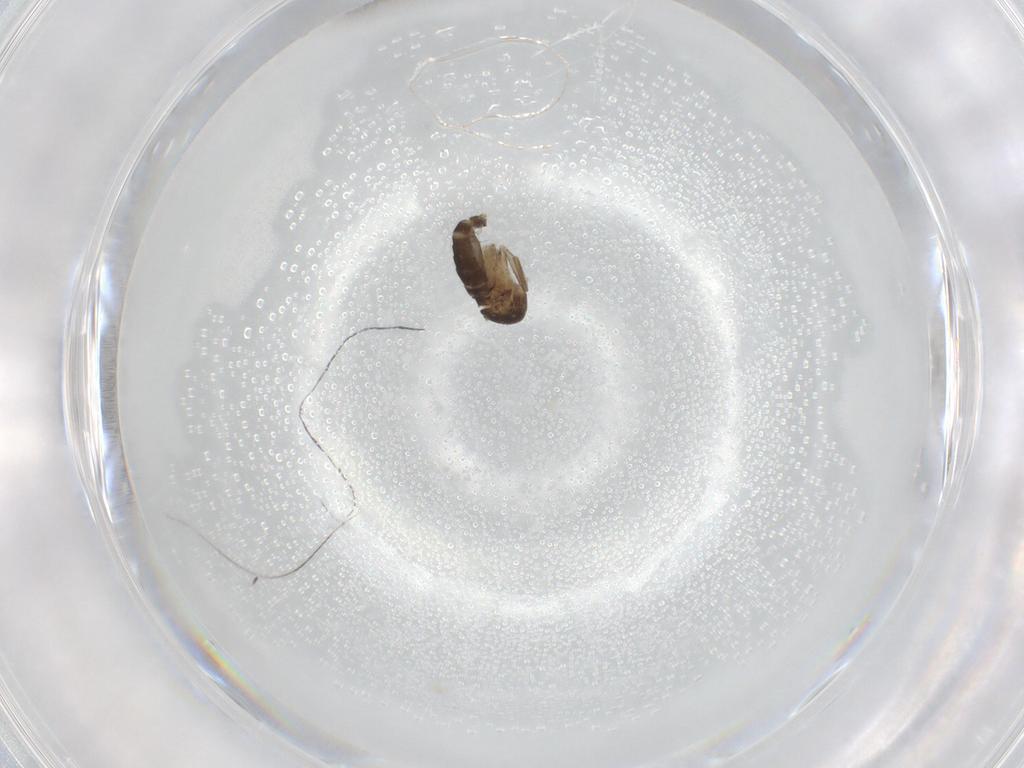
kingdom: Animalia
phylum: Arthropoda
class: Insecta
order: Diptera
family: Phoridae
